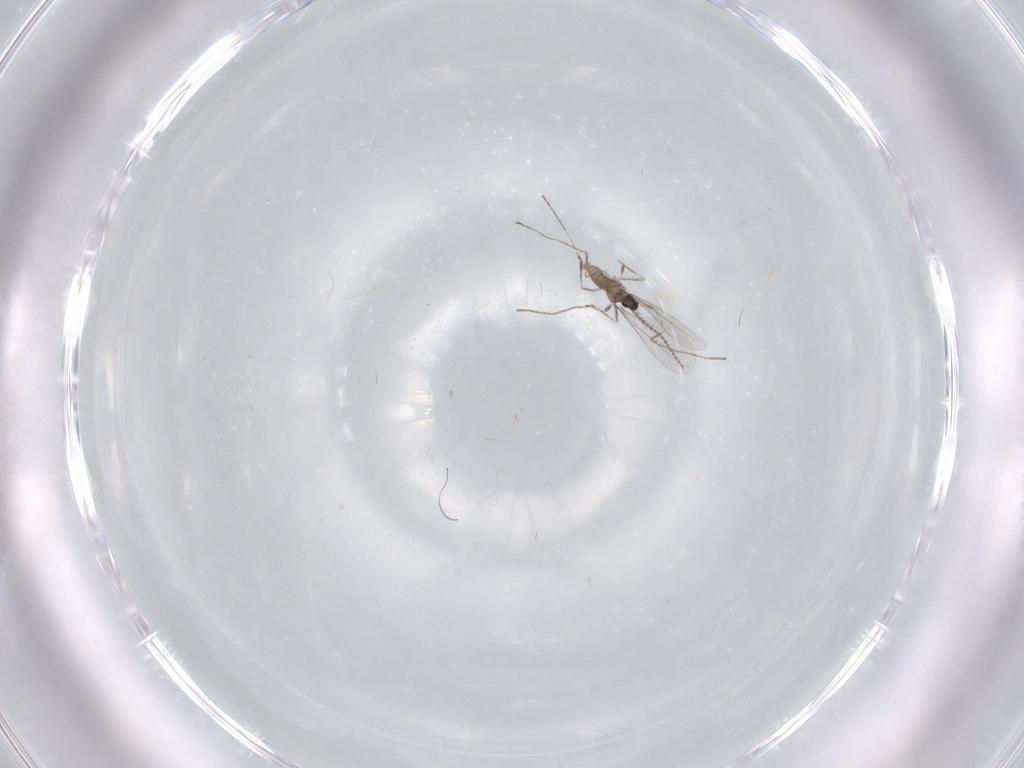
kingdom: Animalia
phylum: Arthropoda
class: Insecta
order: Diptera
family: Cecidomyiidae
